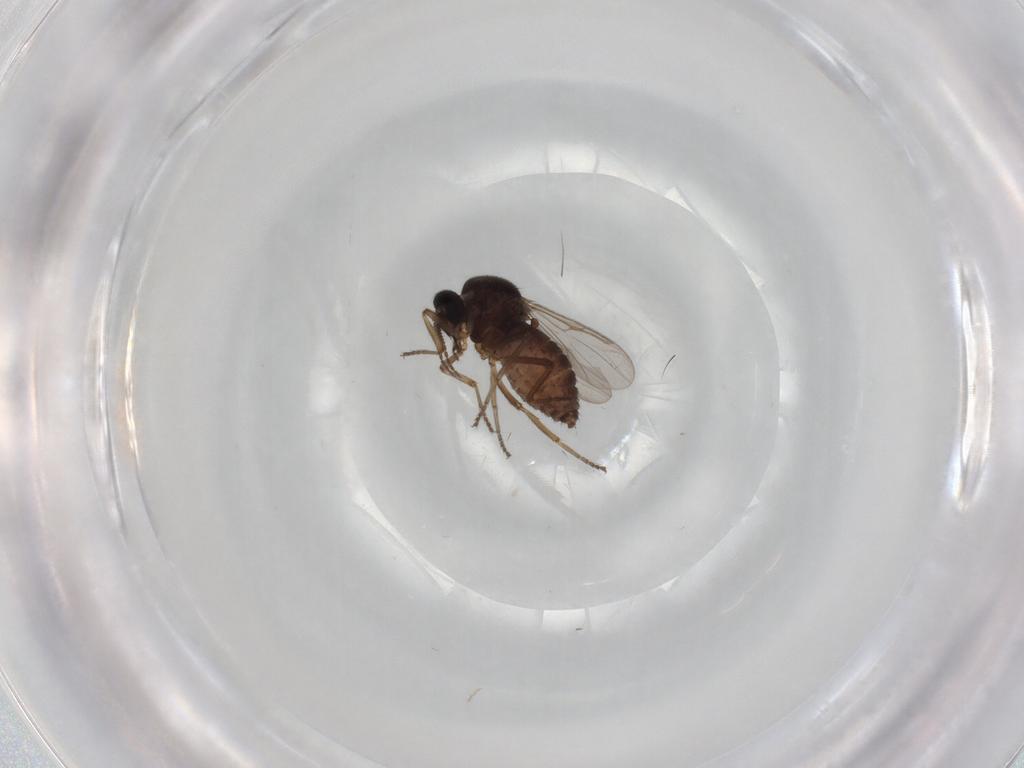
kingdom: Animalia
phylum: Arthropoda
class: Insecta
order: Diptera
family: Ceratopogonidae
